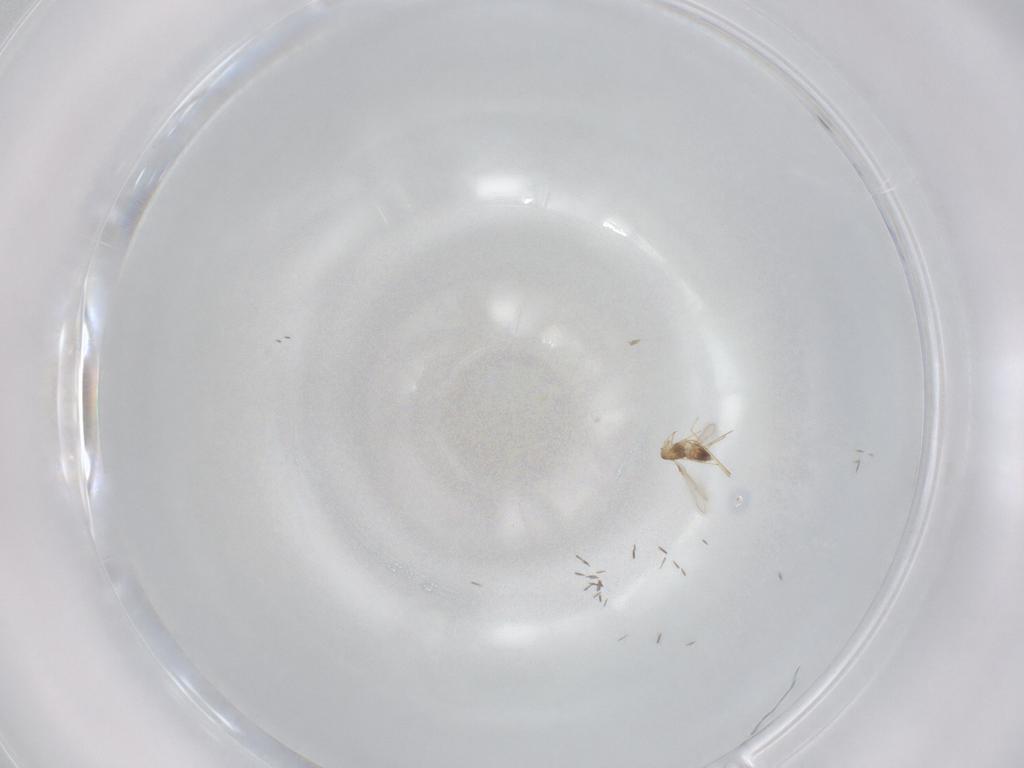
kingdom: Animalia
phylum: Arthropoda
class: Insecta
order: Hymenoptera
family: Mymaridae
